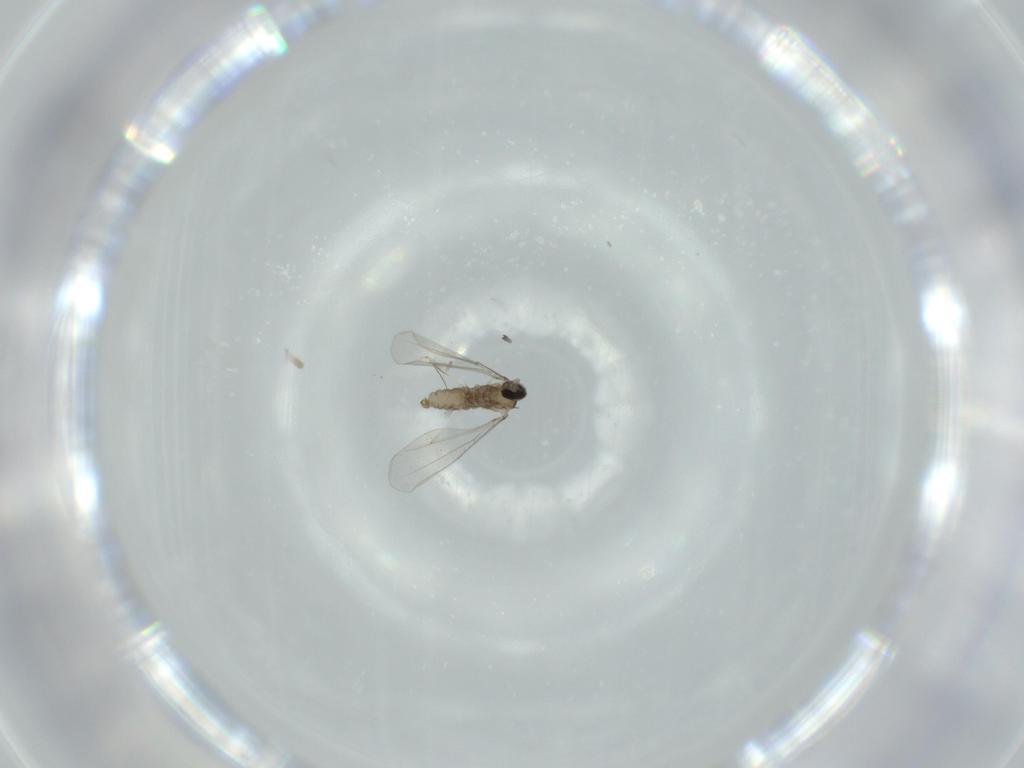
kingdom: Animalia
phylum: Arthropoda
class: Insecta
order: Diptera
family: Cecidomyiidae
